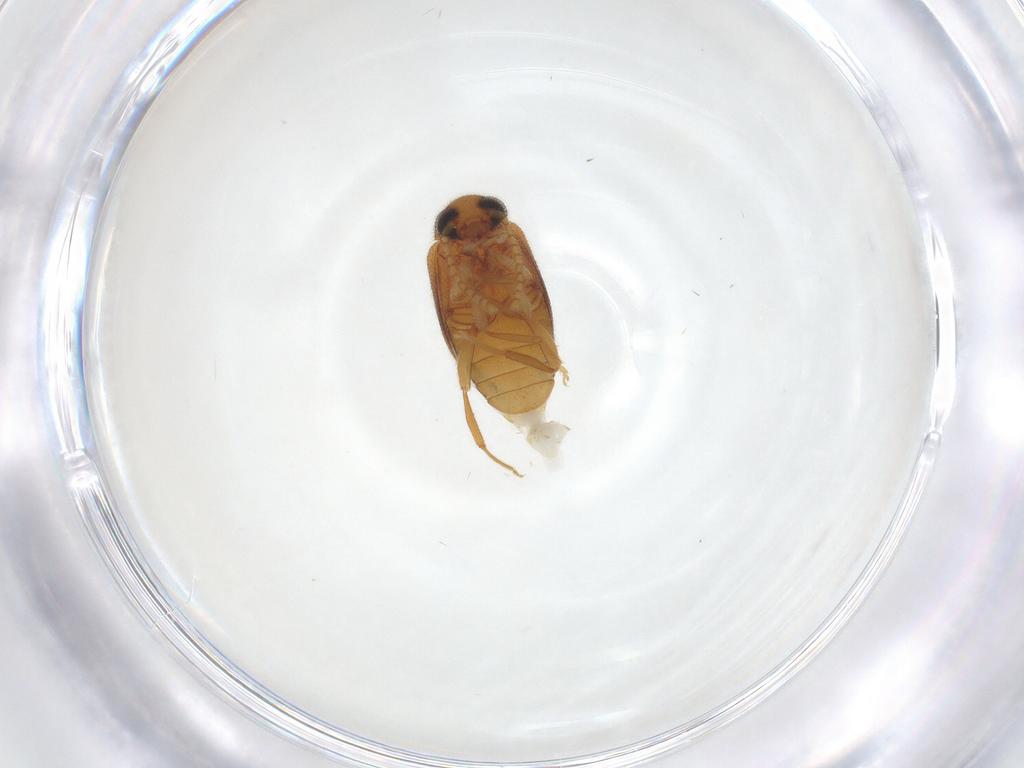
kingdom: Animalia
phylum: Arthropoda
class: Insecta
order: Coleoptera
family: Aderidae
